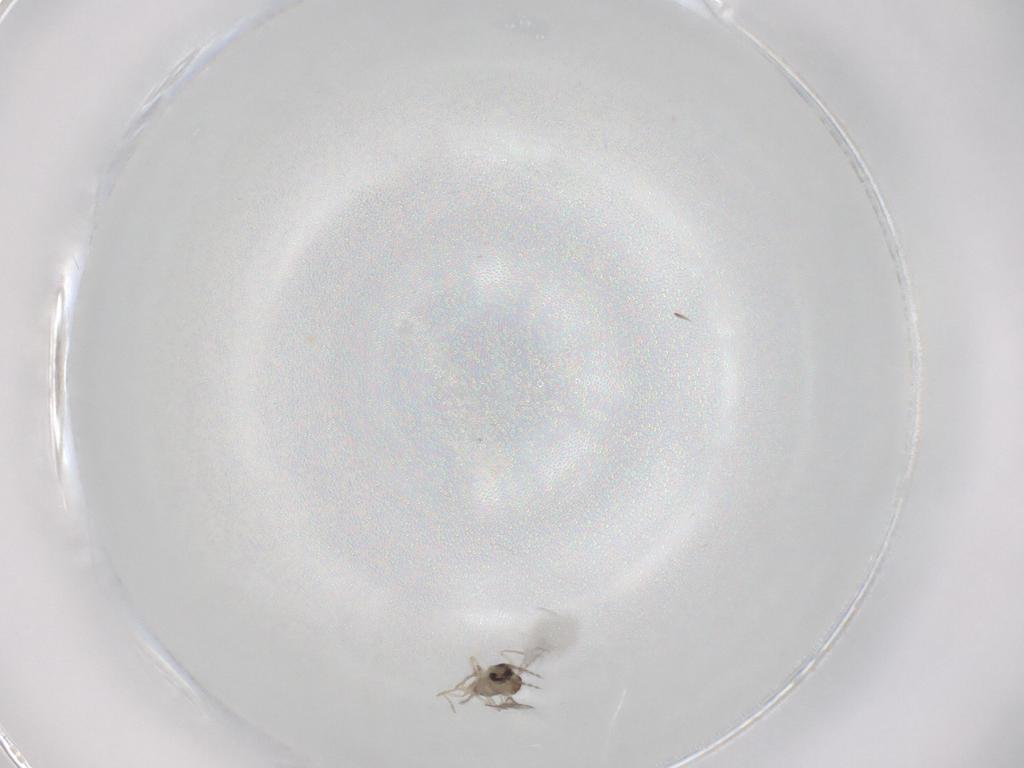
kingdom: Animalia
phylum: Arthropoda
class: Insecta
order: Diptera
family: Cecidomyiidae
